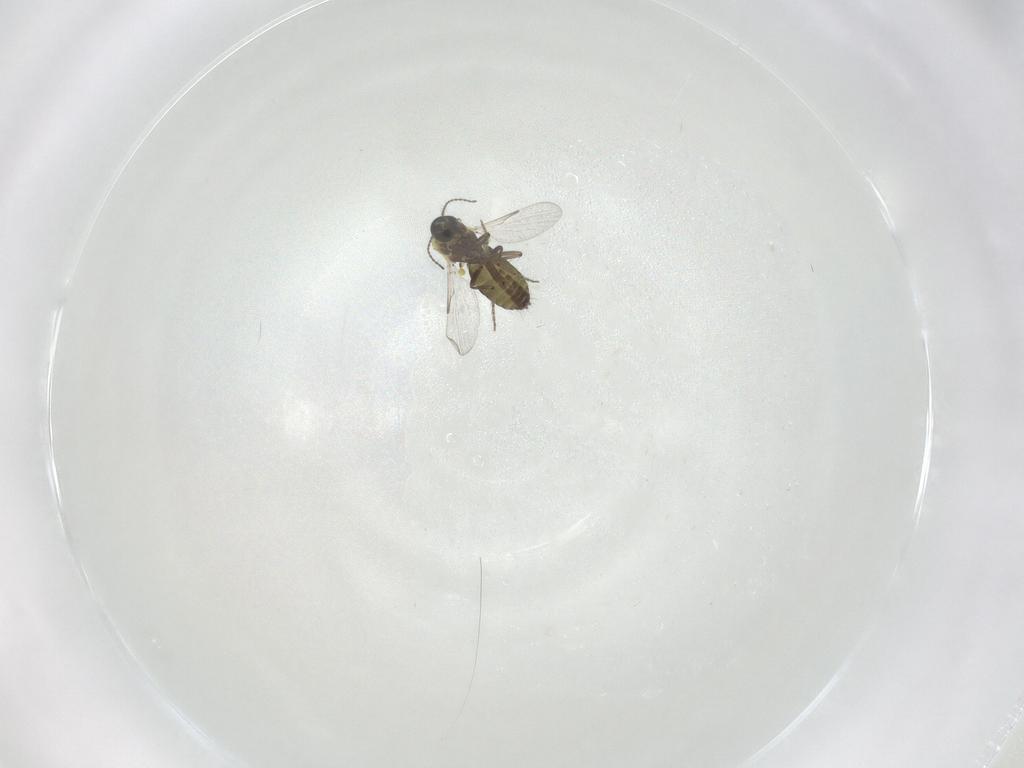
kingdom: Animalia
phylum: Arthropoda
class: Insecta
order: Diptera
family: Ceratopogonidae
